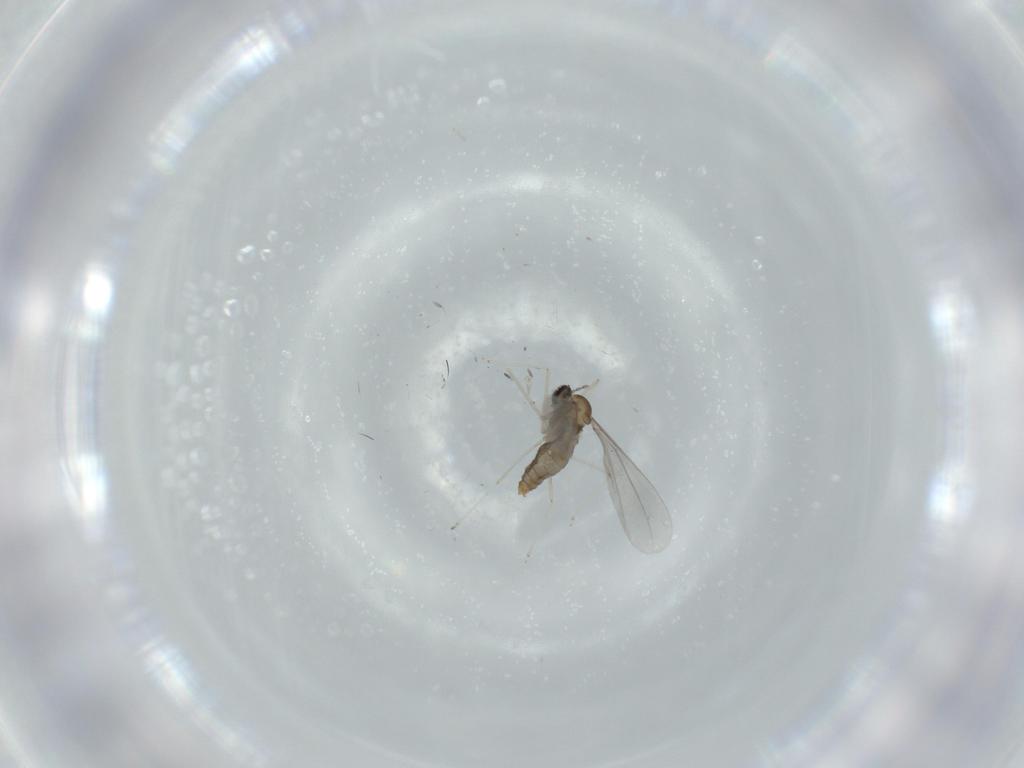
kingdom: Animalia
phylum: Arthropoda
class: Insecta
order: Diptera
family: Cecidomyiidae
